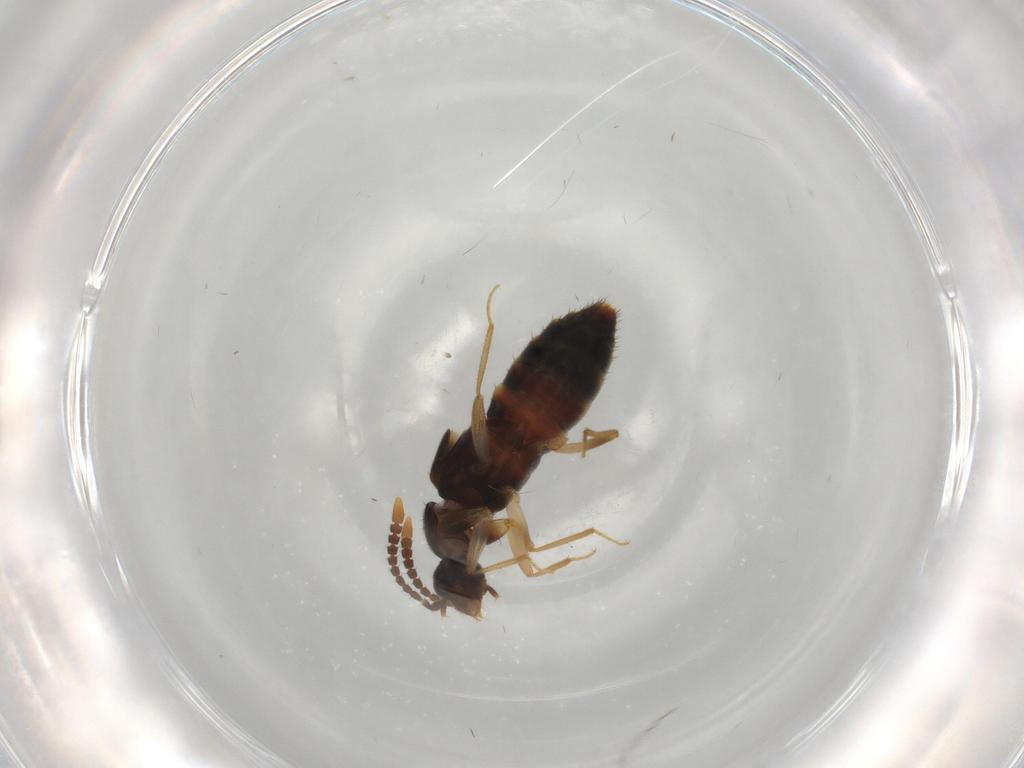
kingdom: Animalia
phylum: Arthropoda
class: Insecta
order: Coleoptera
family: Staphylinidae
